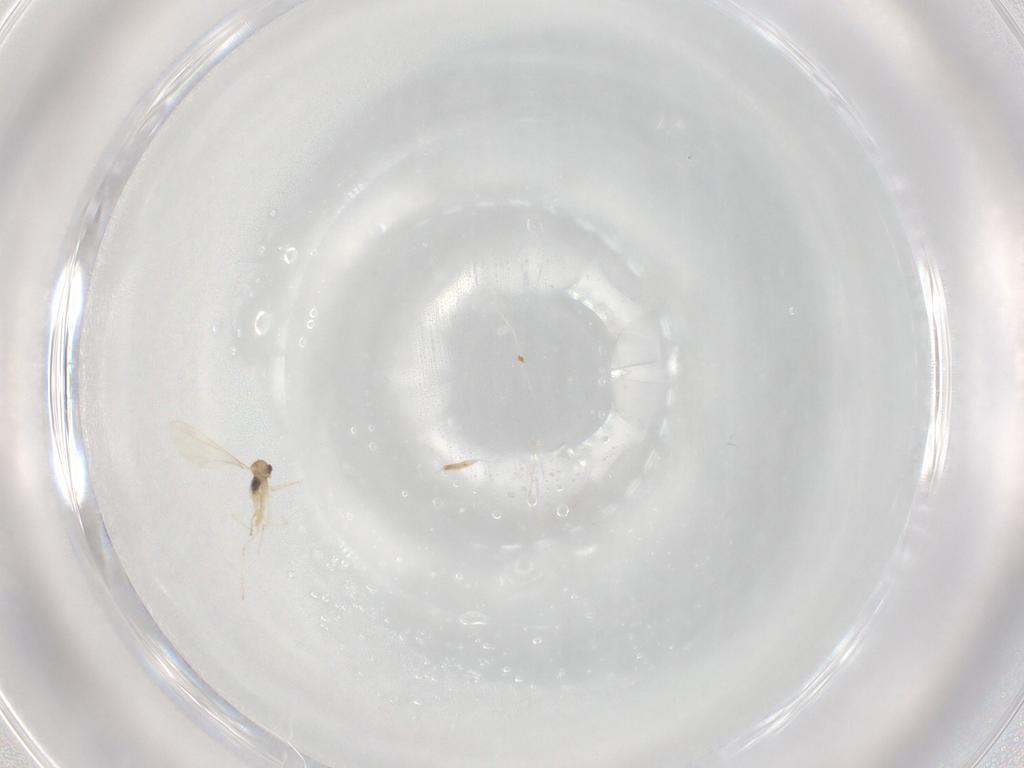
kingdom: Animalia
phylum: Arthropoda
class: Insecta
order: Diptera
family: Cecidomyiidae
